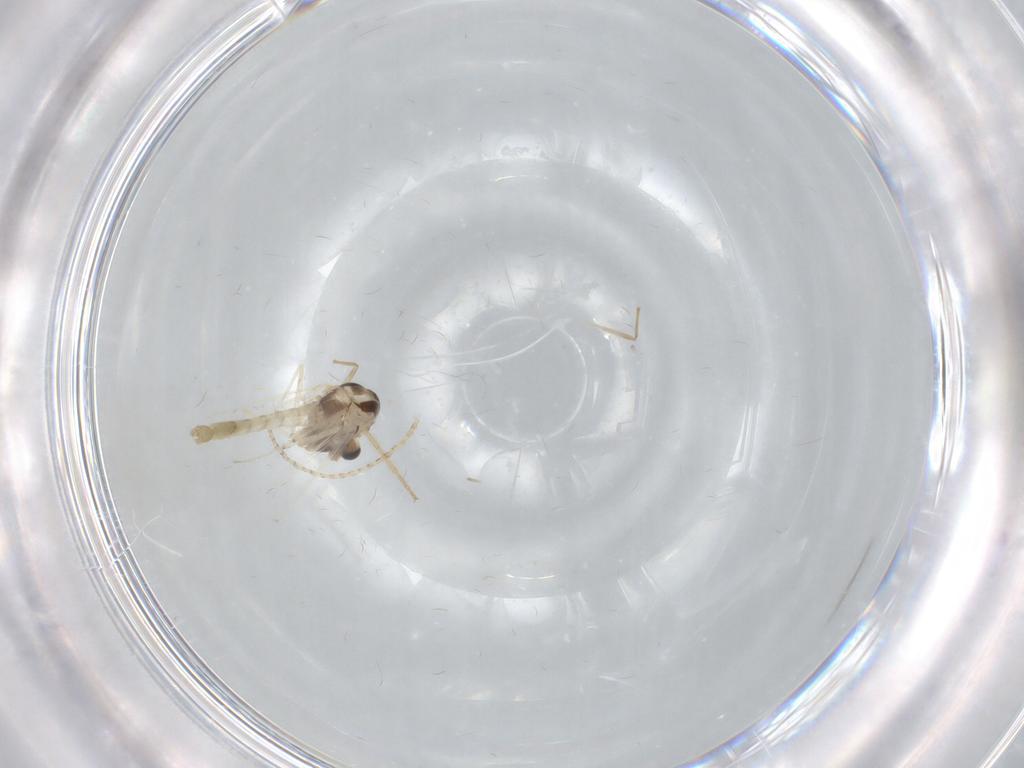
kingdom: Animalia
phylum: Arthropoda
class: Insecta
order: Diptera
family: Chironomidae
